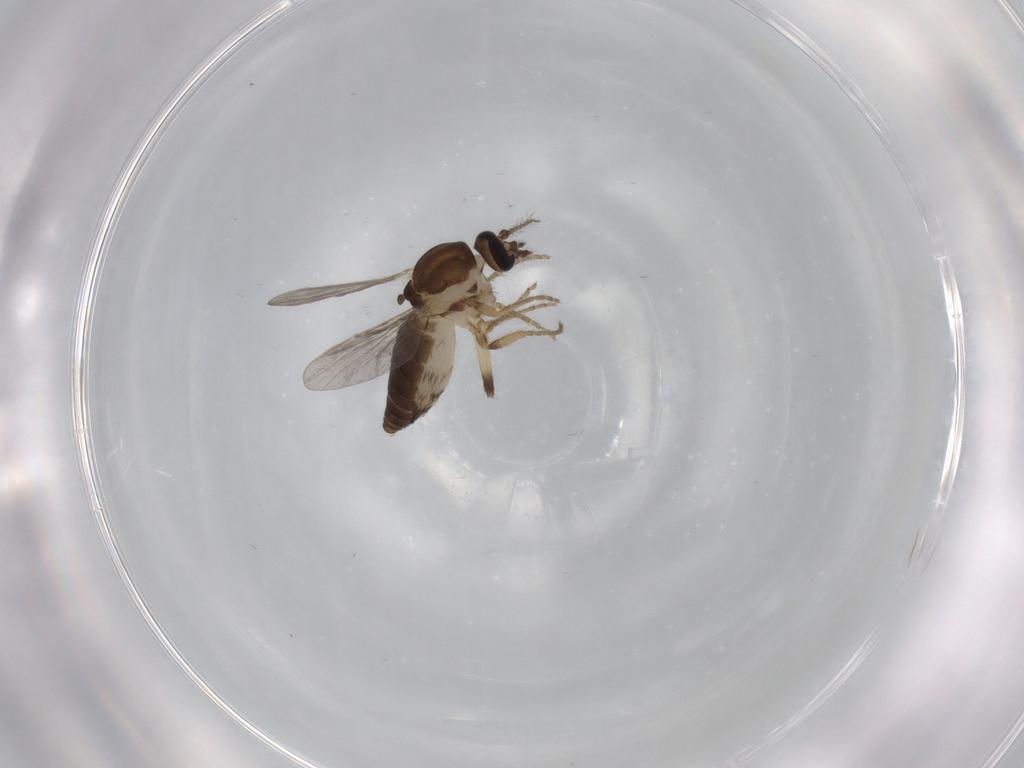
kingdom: Animalia
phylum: Arthropoda
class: Insecta
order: Diptera
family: Ceratopogonidae
